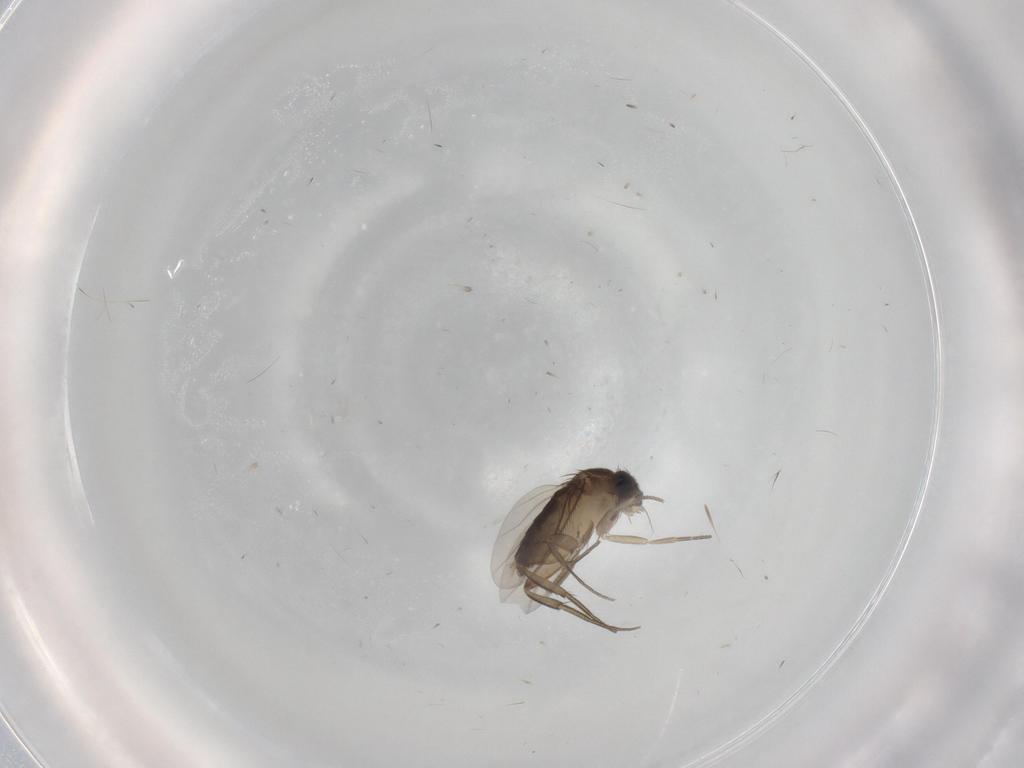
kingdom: Animalia
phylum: Arthropoda
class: Insecta
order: Diptera
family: Phoridae
